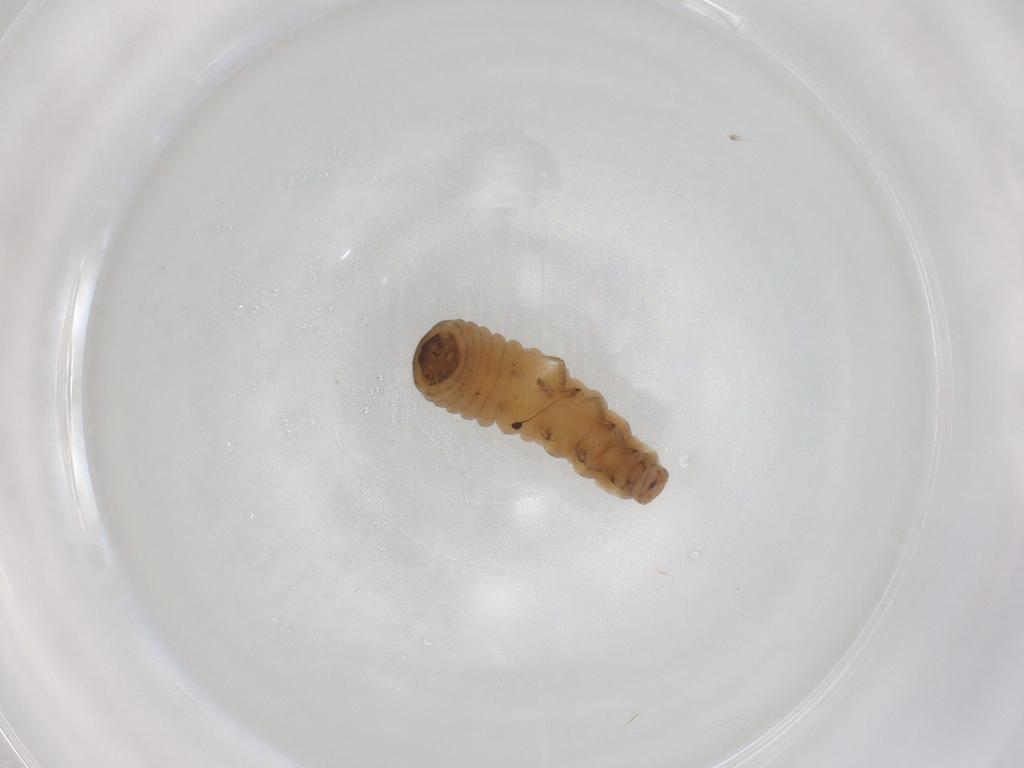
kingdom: Animalia
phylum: Arthropoda
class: Insecta
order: Coleoptera
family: Melyridae
